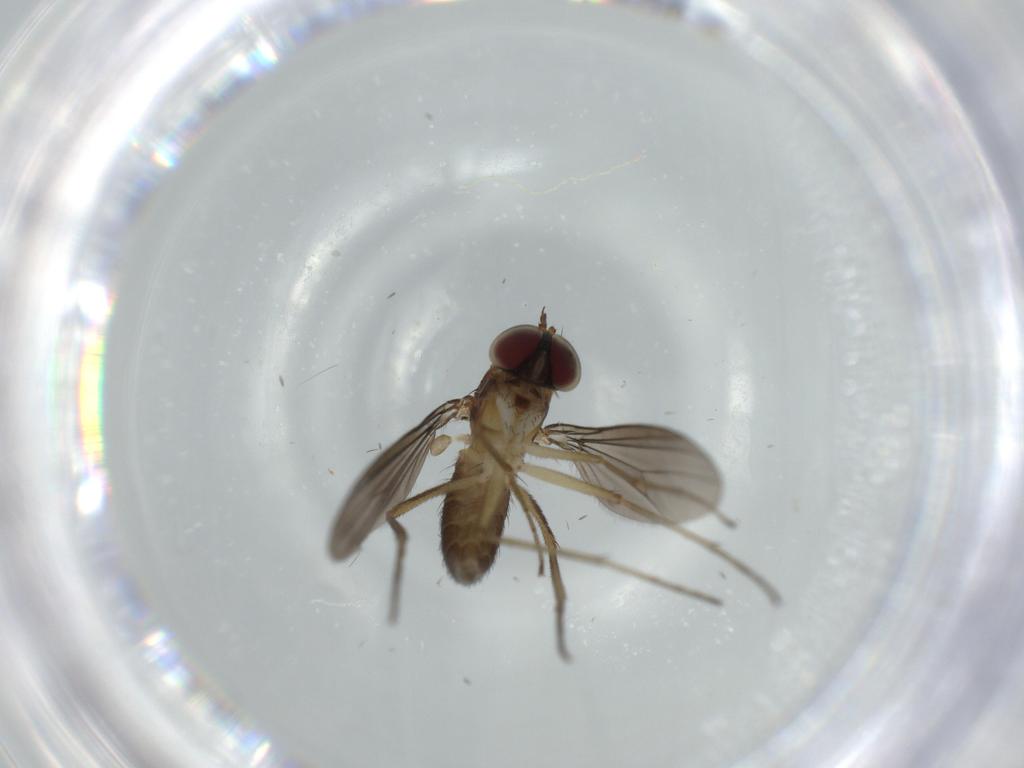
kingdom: Animalia
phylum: Arthropoda
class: Insecta
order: Diptera
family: Dolichopodidae
